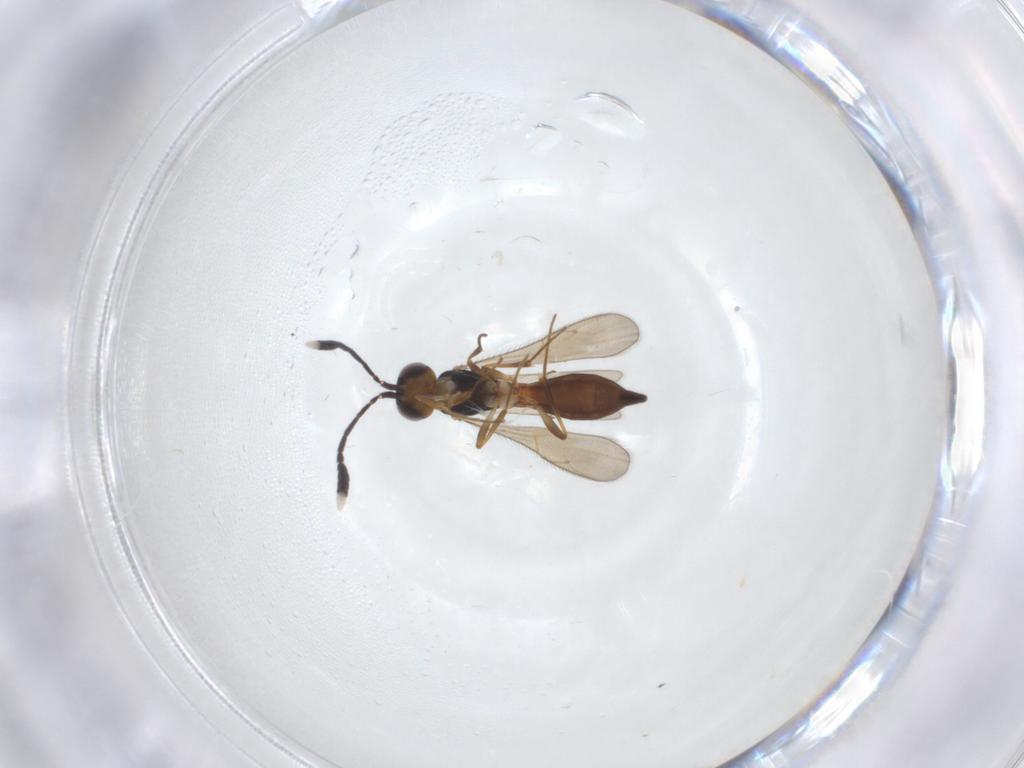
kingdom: Animalia
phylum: Arthropoda
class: Insecta
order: Hymenoptera
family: Scelionidae
